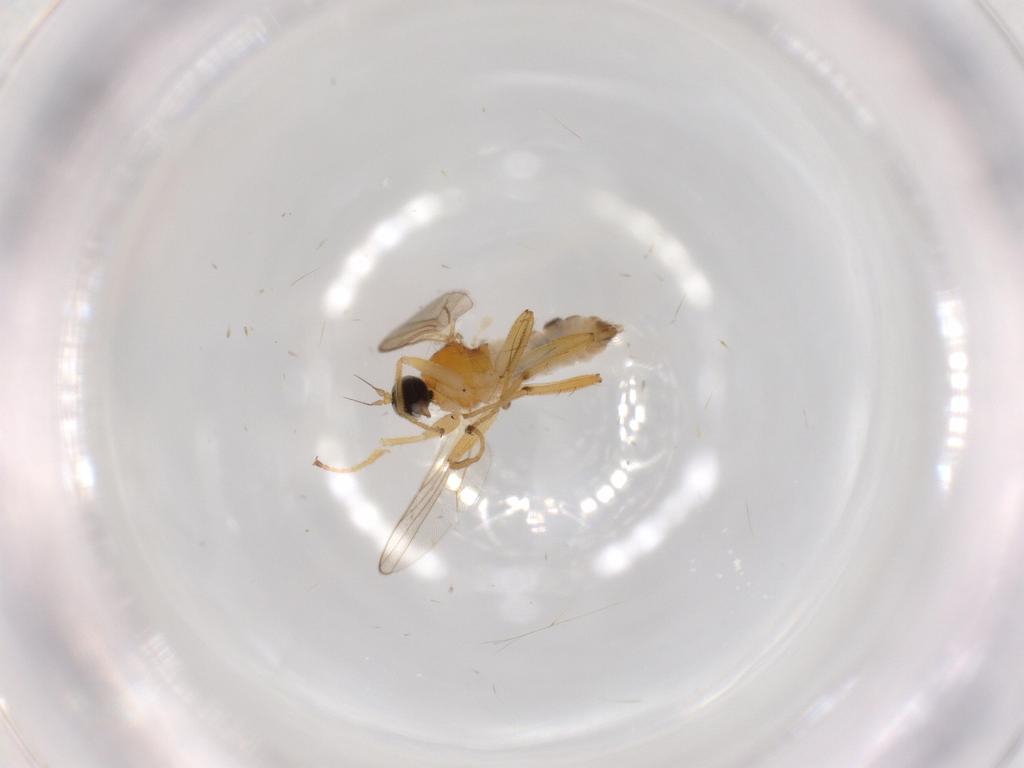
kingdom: Animalia
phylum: Arthropoda
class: Insecta
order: Diptera
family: Hybotidae
